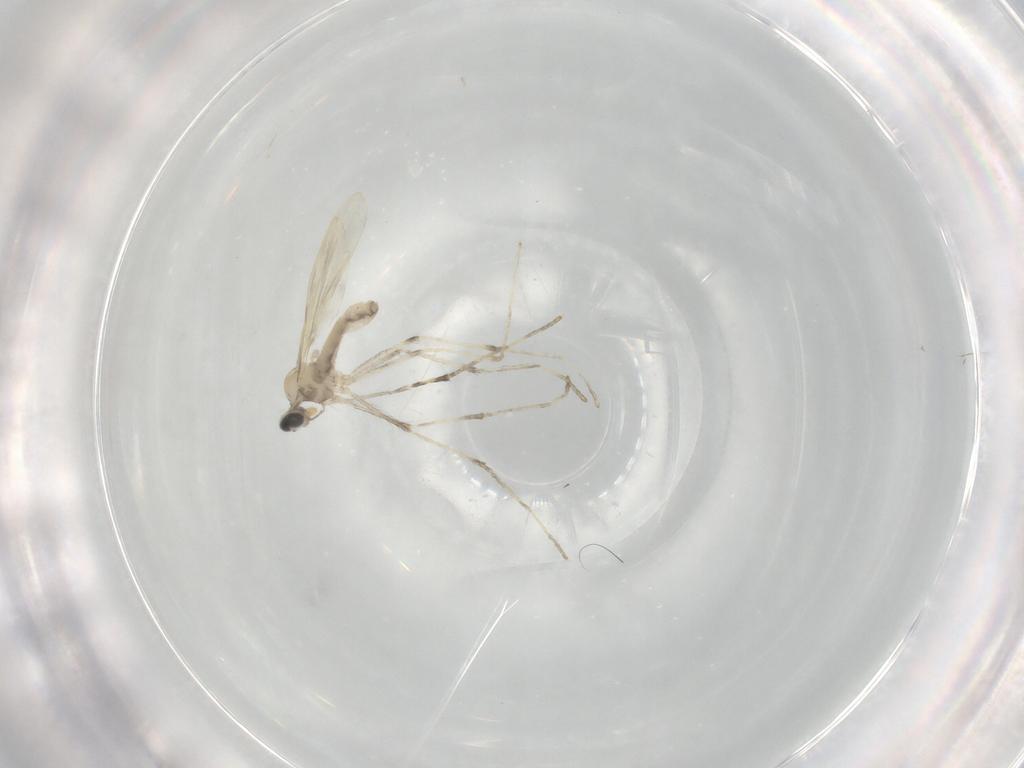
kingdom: Animalia
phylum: Arthropoda
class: Insecta
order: Diptera
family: Cecidomyiidae
